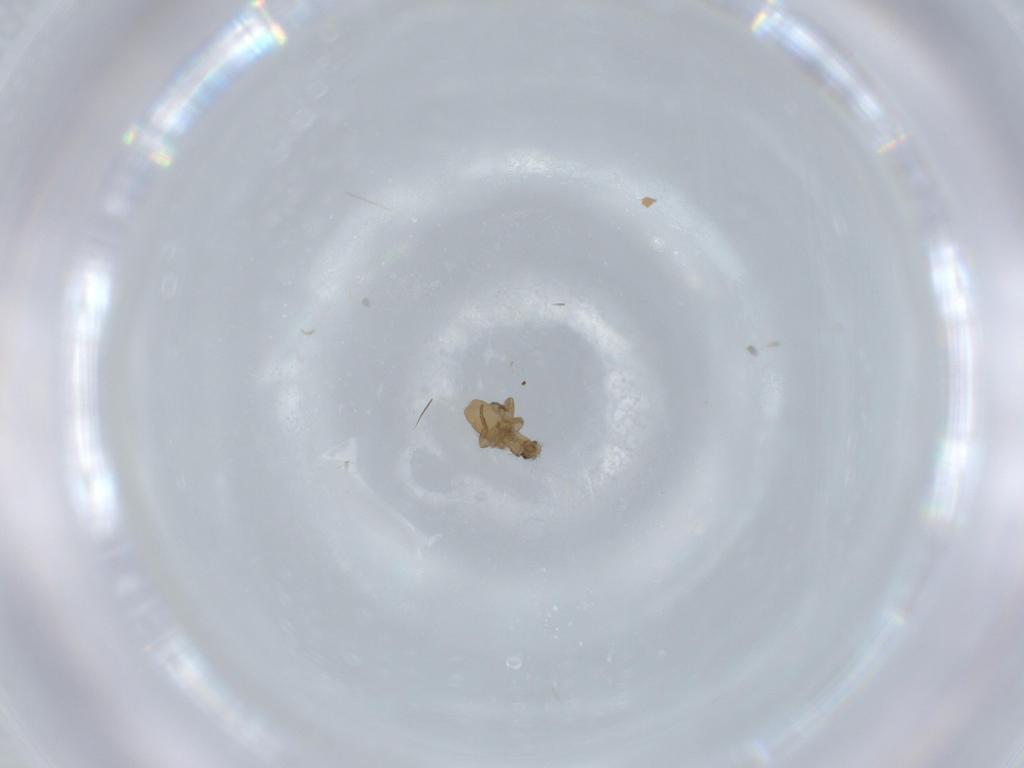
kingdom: Animalia
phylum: Arthropoda
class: Insecta
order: Diptera
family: Phoridae
